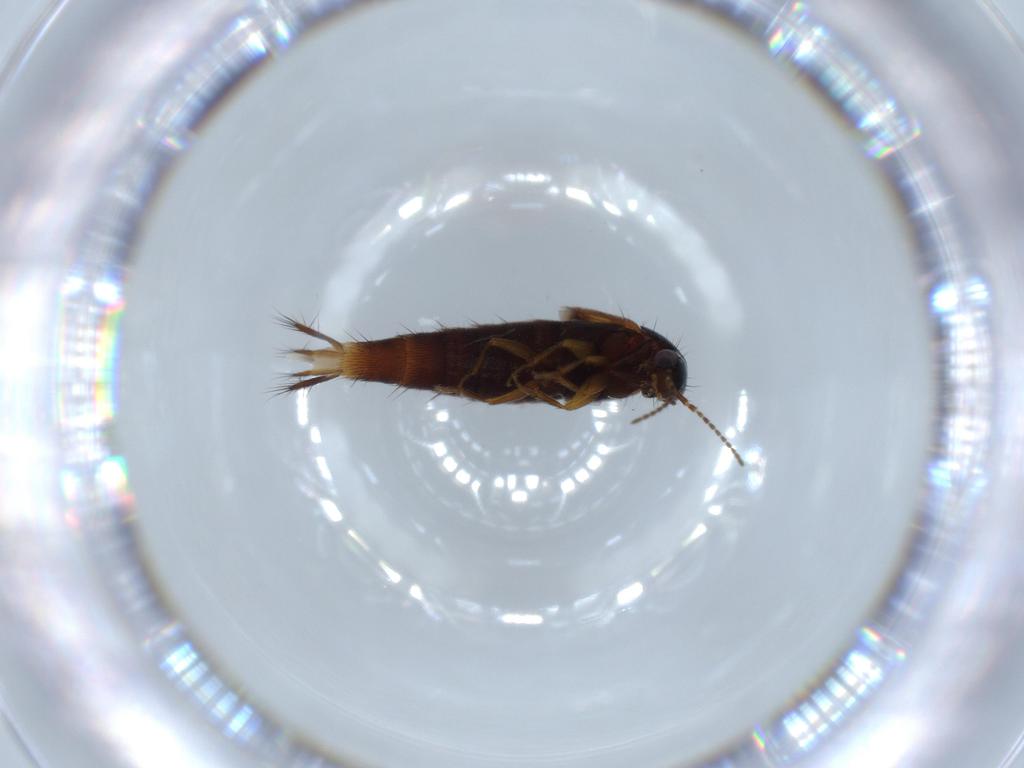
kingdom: Animalia
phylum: Arthropoda
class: Insecta
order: Coleoptera
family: Staphylinidae
